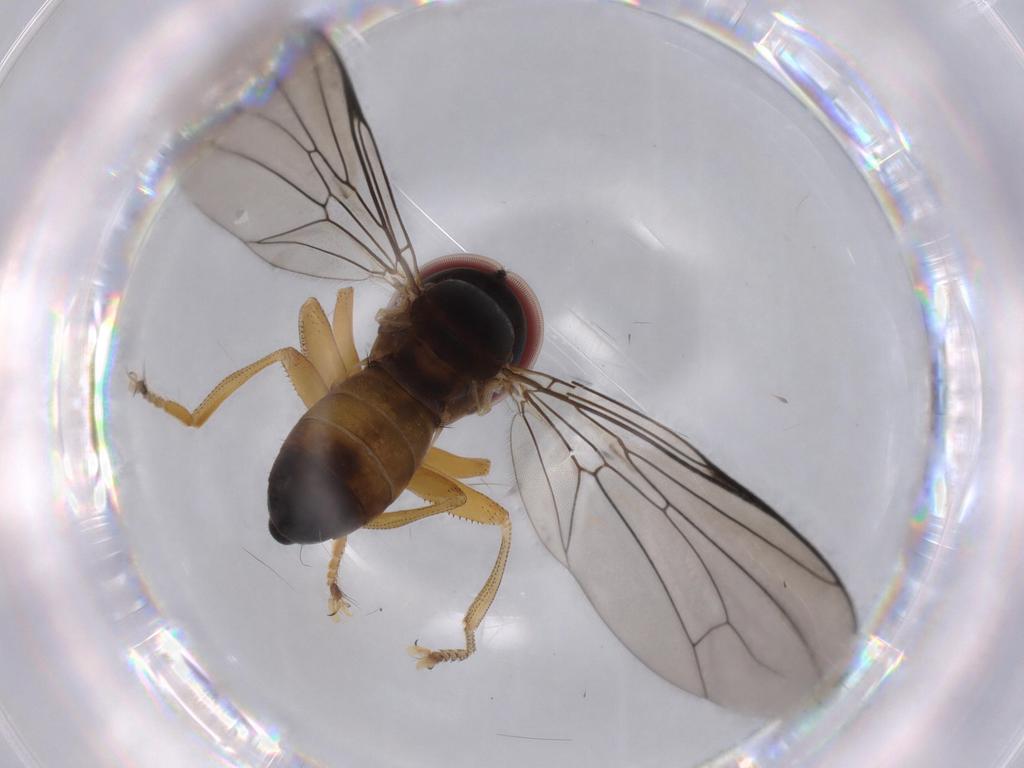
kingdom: Animalia
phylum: Arthropoda
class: Insecta
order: Diptera
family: Pipunculidae
